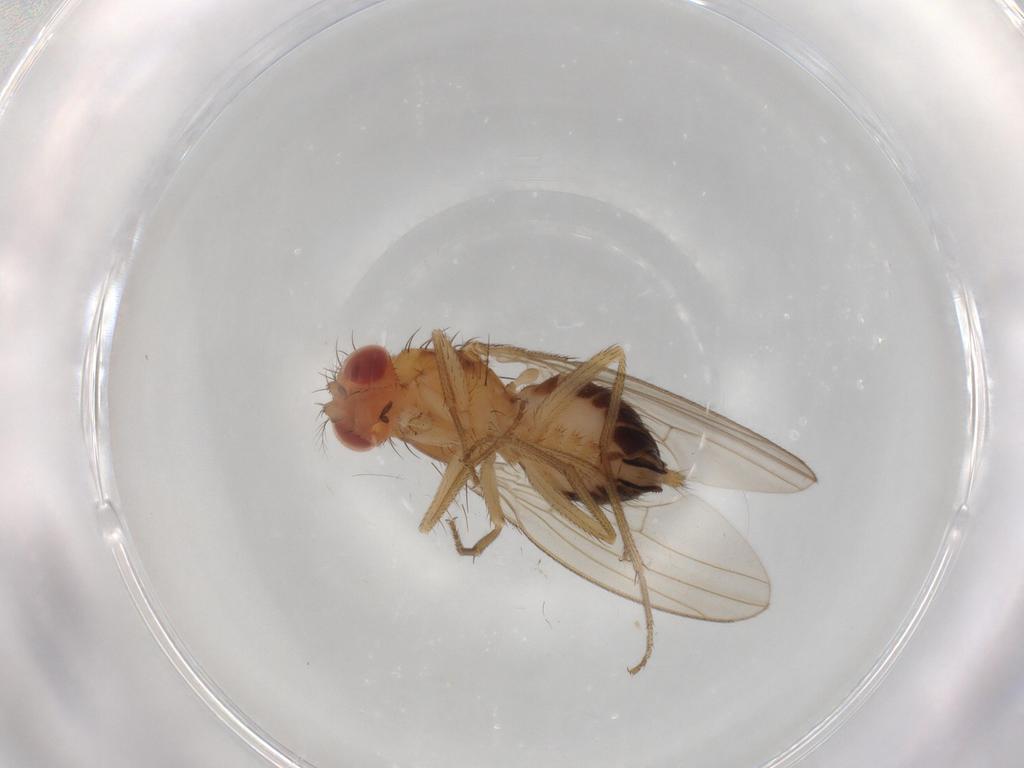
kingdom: Animalia
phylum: Arthropoda
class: Insecta
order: Diptera
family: Drosophilidae
